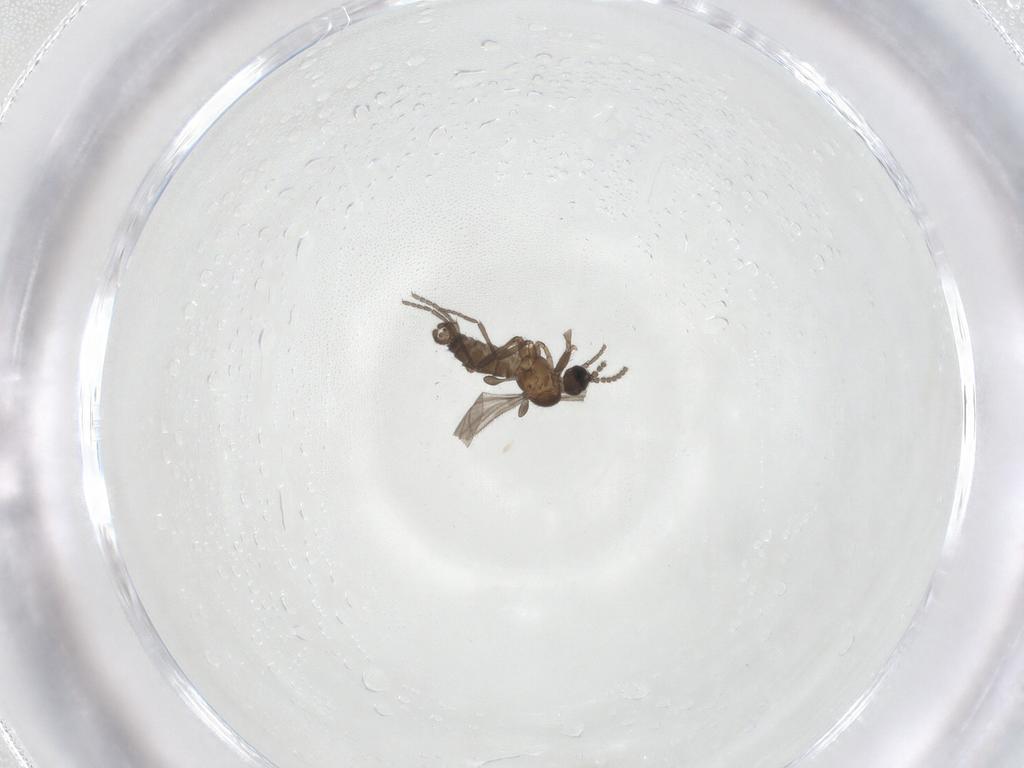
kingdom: Animalia
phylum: Arthropoda
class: Insecta
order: Diptera
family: Sciaridae
